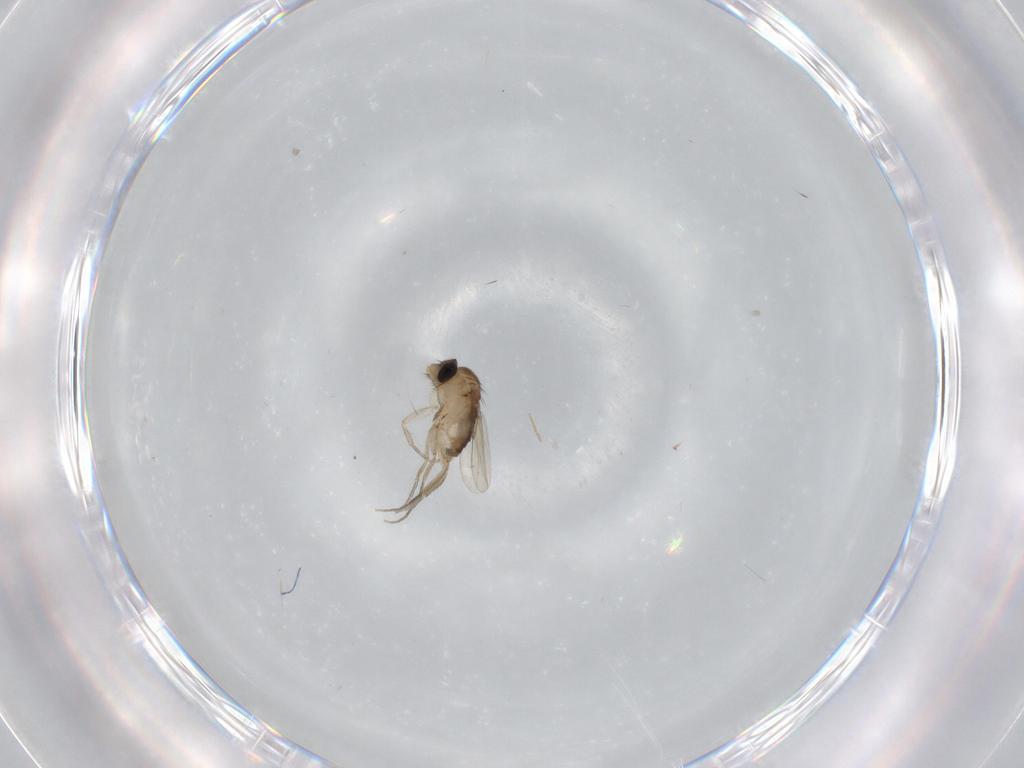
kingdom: Animalia
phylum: Arthropoda
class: Insecta
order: Diptera
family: Phoridae
